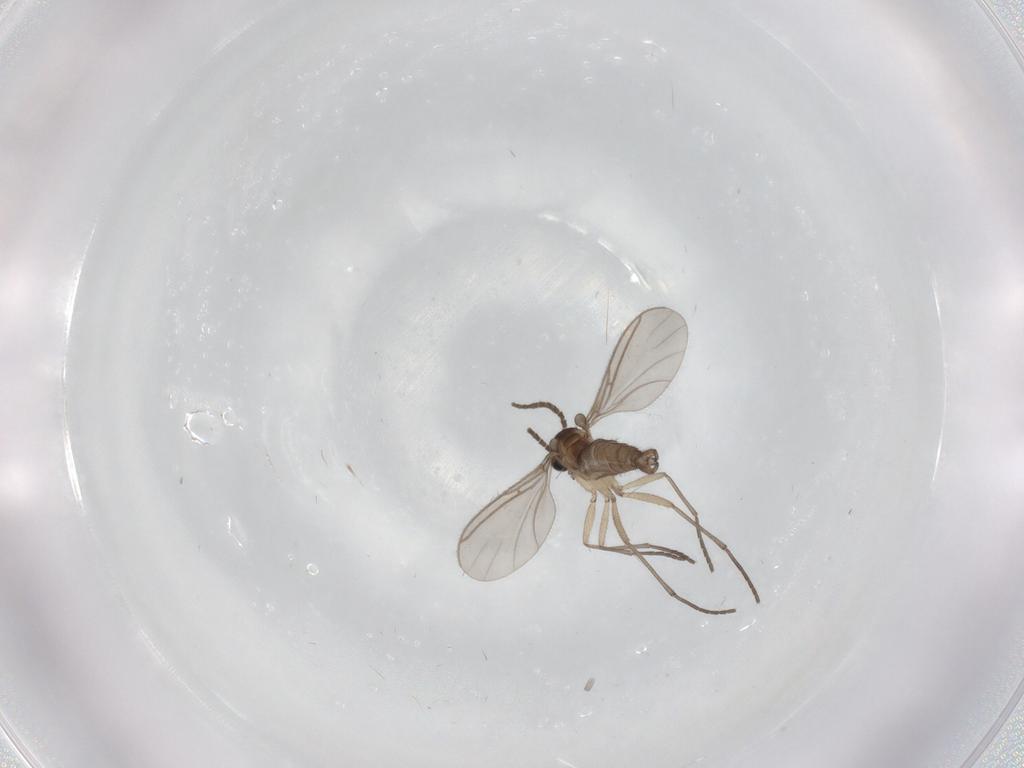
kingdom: Animalia
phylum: Arthropoda
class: Insecta
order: Diptera
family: Sciaridae
